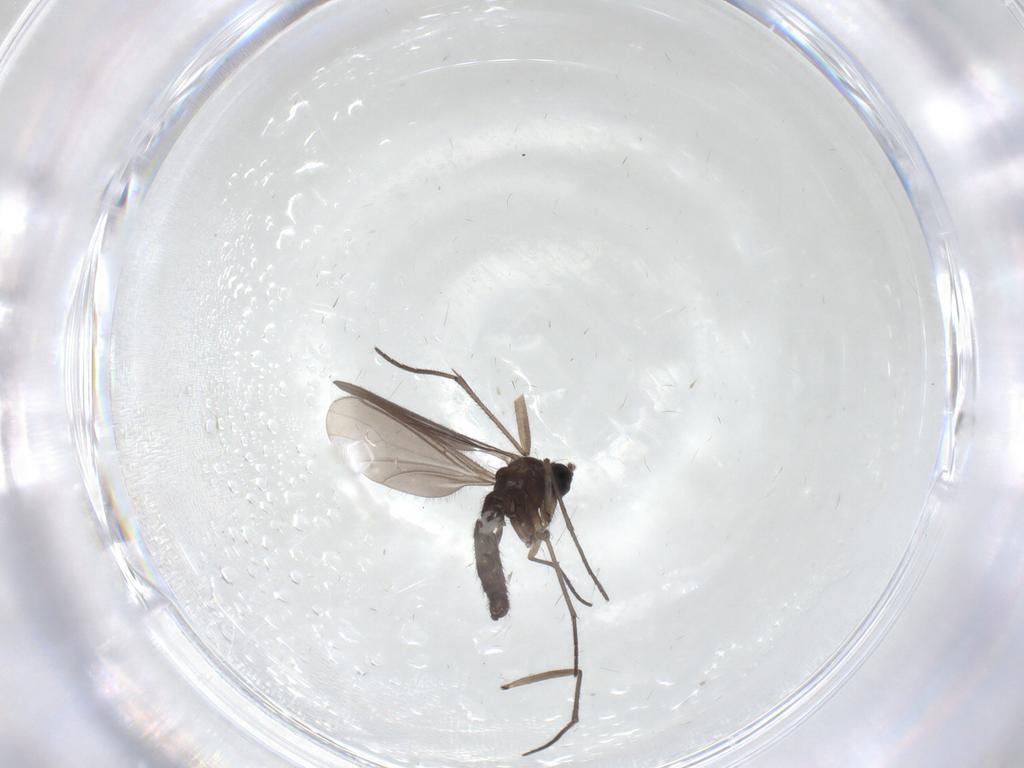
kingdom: Animalia
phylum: Arthropoda
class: Insecta
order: Diptera
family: Sciaridae
